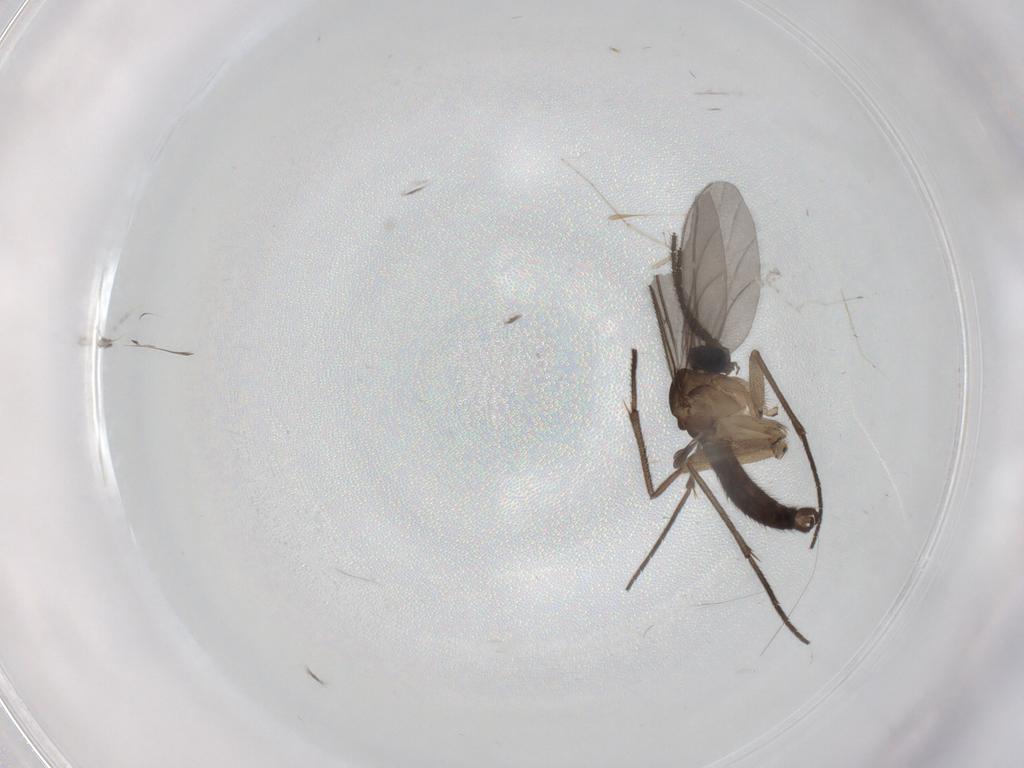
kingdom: Animalia
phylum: Arthropoda
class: Insecta
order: Diptera
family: Sciaridae
